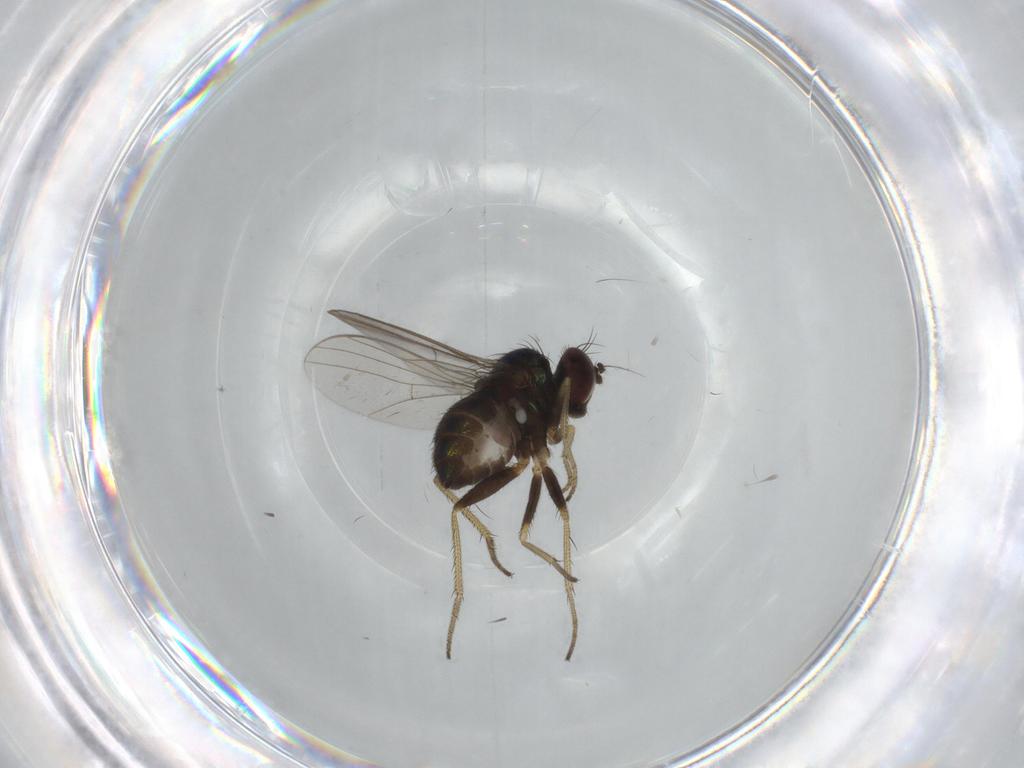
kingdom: Animalia
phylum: Arthropoda
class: Insecta
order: Diptera
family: Dolichopodidae
